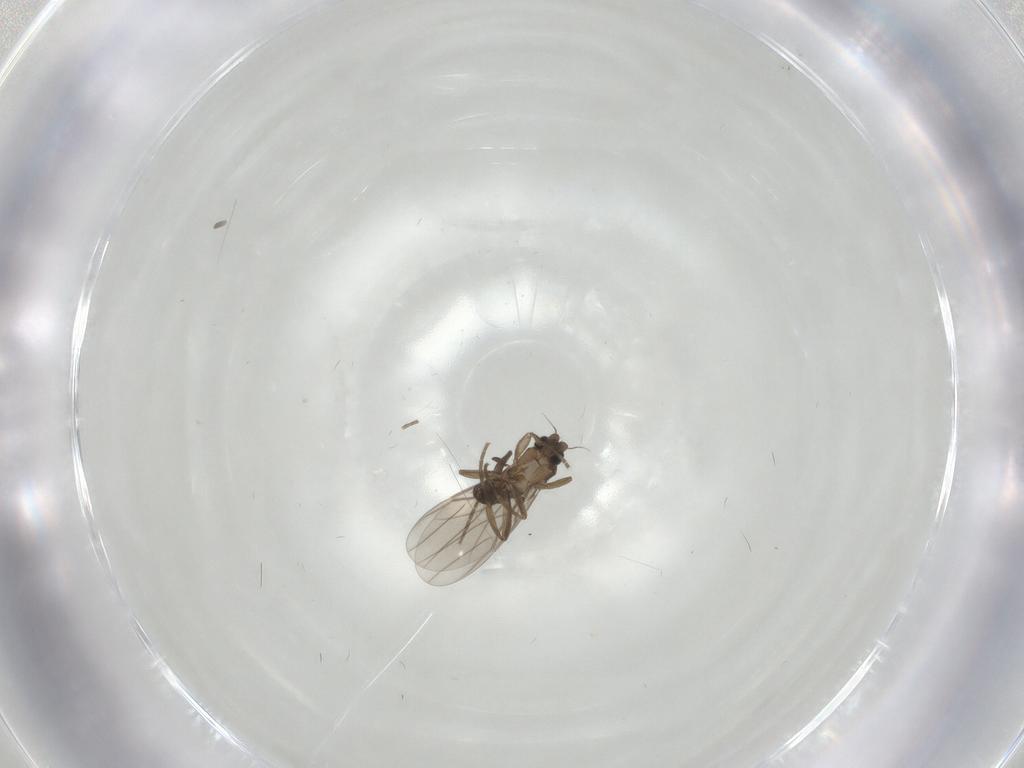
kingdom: Animalia
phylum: Arthropoda
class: Insecta
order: Diptera
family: Phoridae
